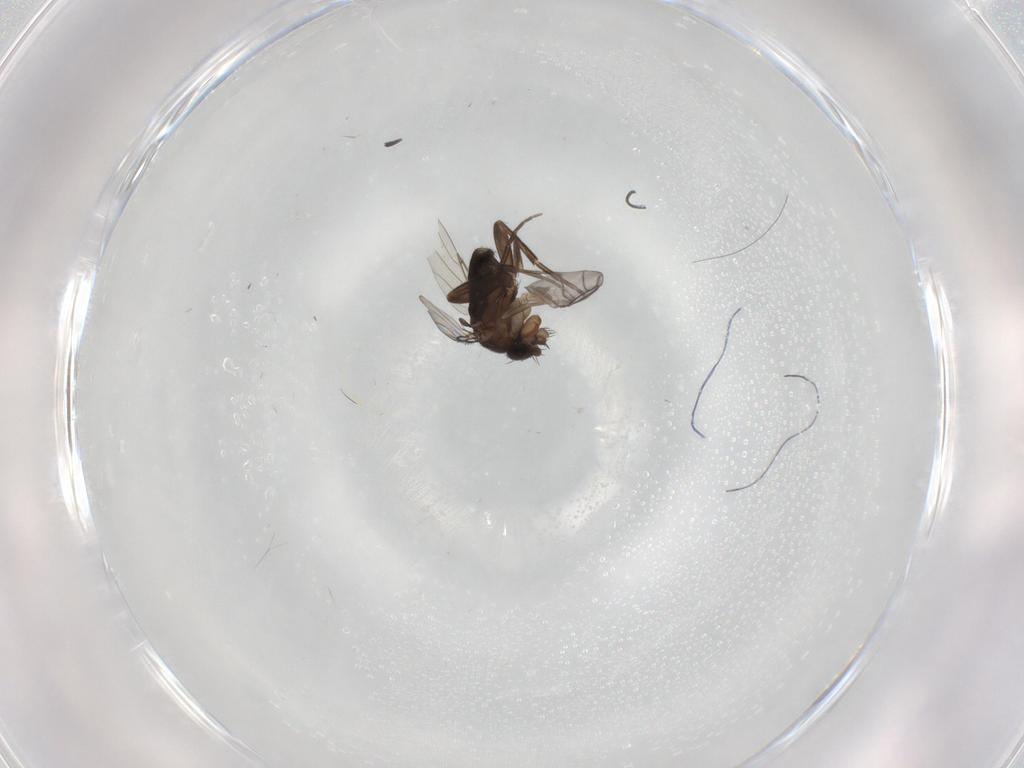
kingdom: Animalia
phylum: Arthropoda
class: Insecta
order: Diptera
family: Phoridae
